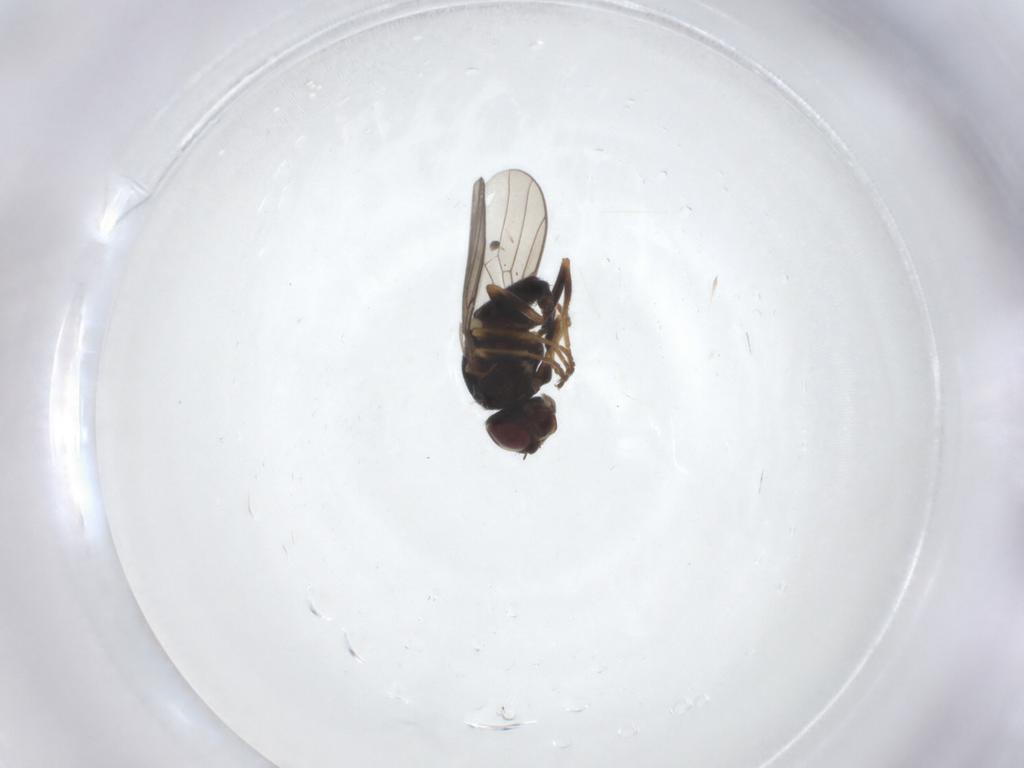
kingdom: Animalia
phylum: Arthropoda
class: Insecta
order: Diptera
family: Chloropidae
